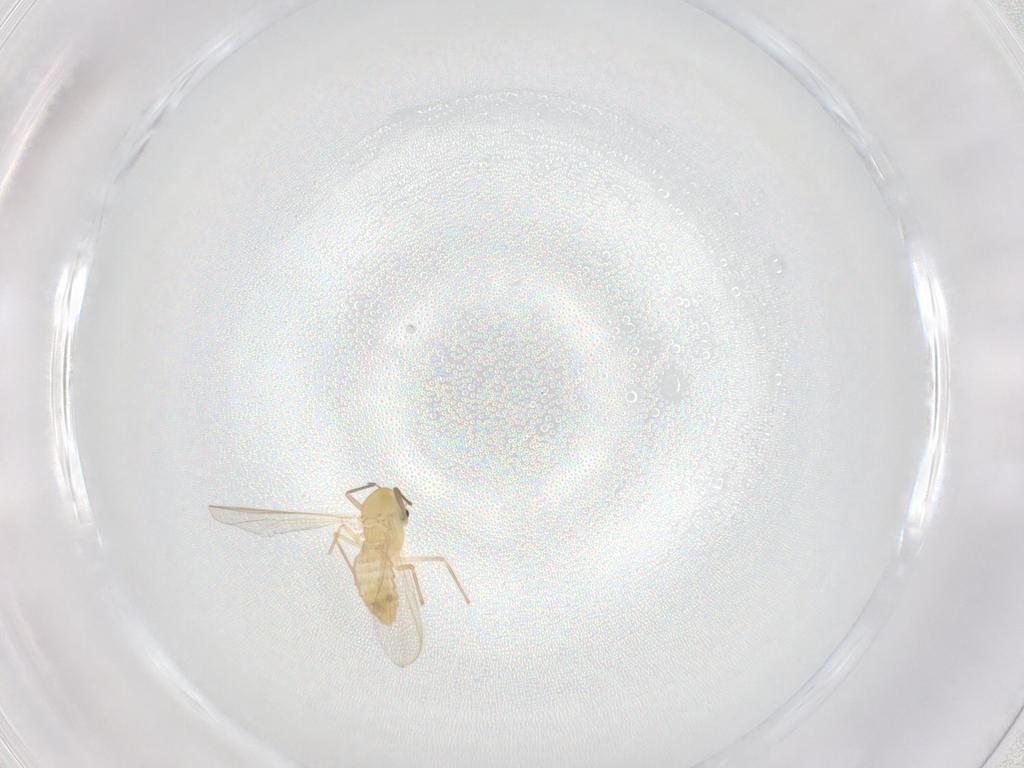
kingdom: Animalia
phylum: Arthropoda
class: Insecta
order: Diptera
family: Chironomidae
